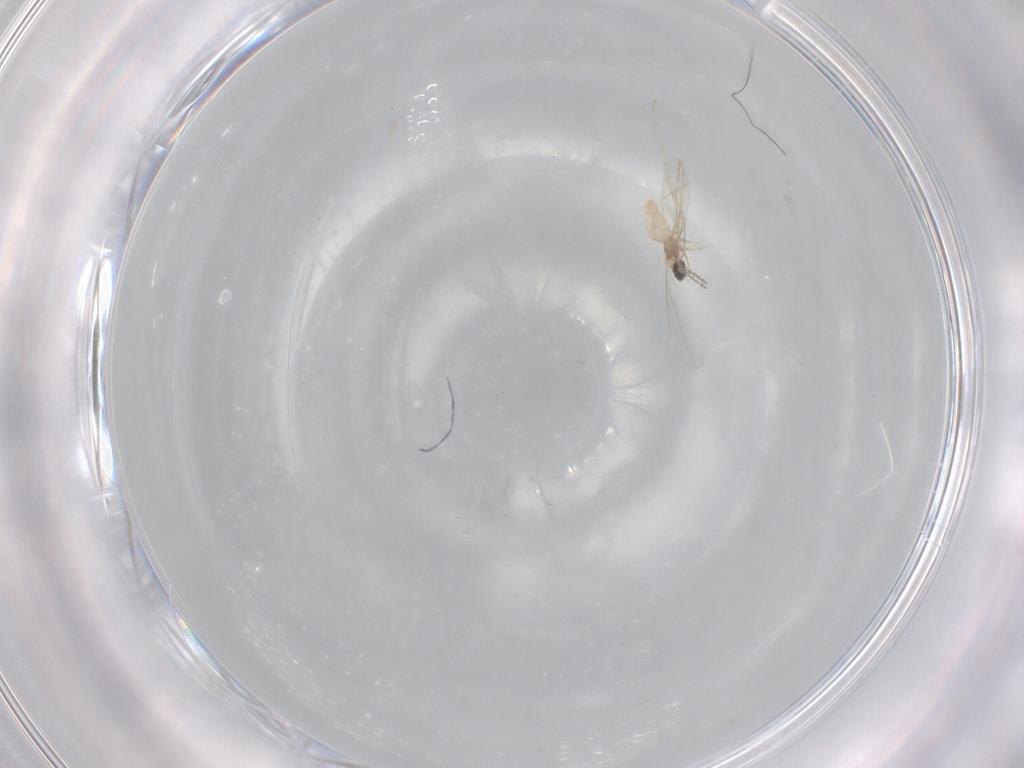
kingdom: Animalia
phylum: Arthropoda
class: Insecta
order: Diptera
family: Cecidomyiidae
